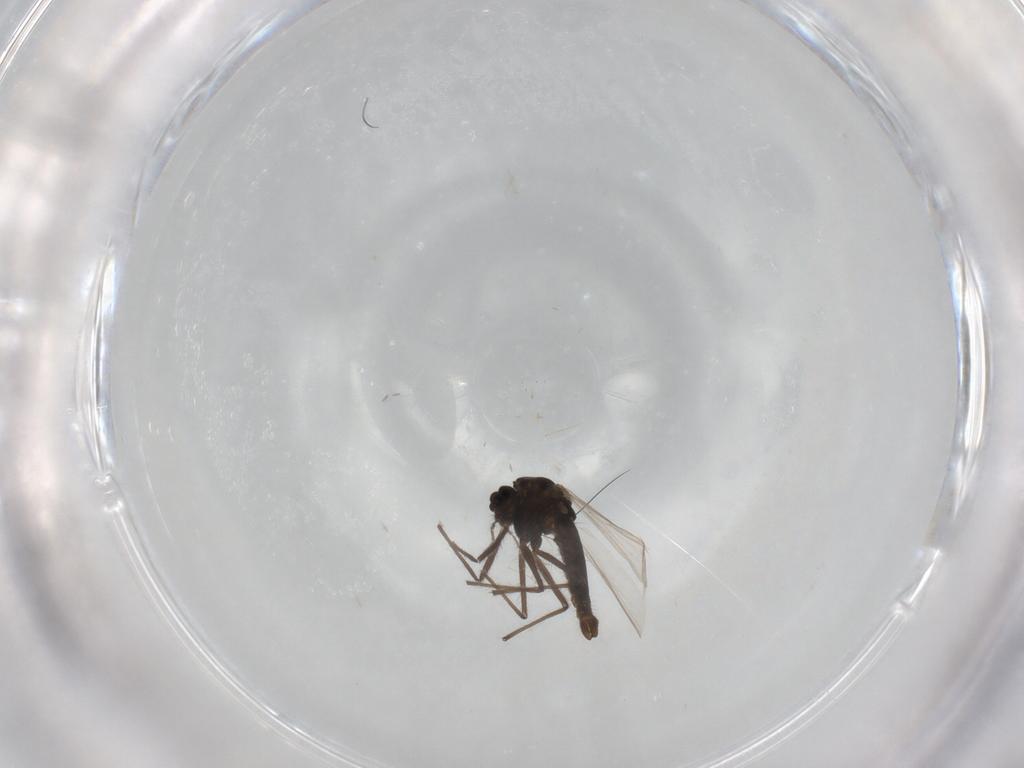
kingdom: Animalia
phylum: Arthropoda
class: Insecta
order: Diptera
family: Chironomidae
